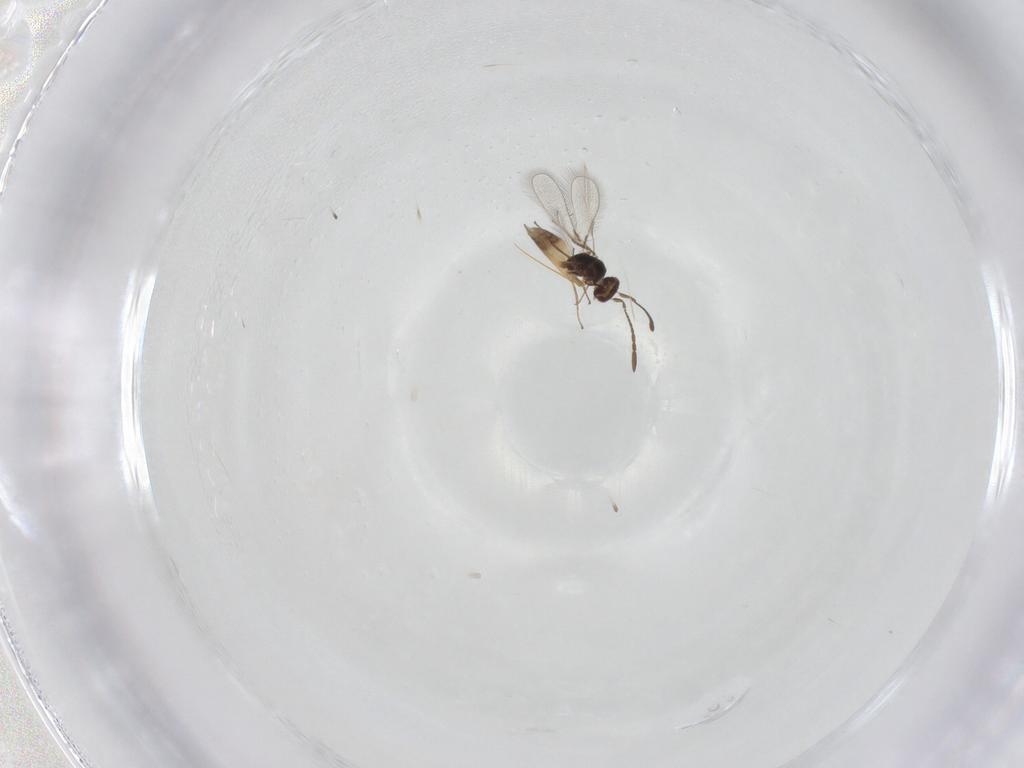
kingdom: Animalia
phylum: Arthropoda
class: Insecta
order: Hymenoptera
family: Mymaridae
